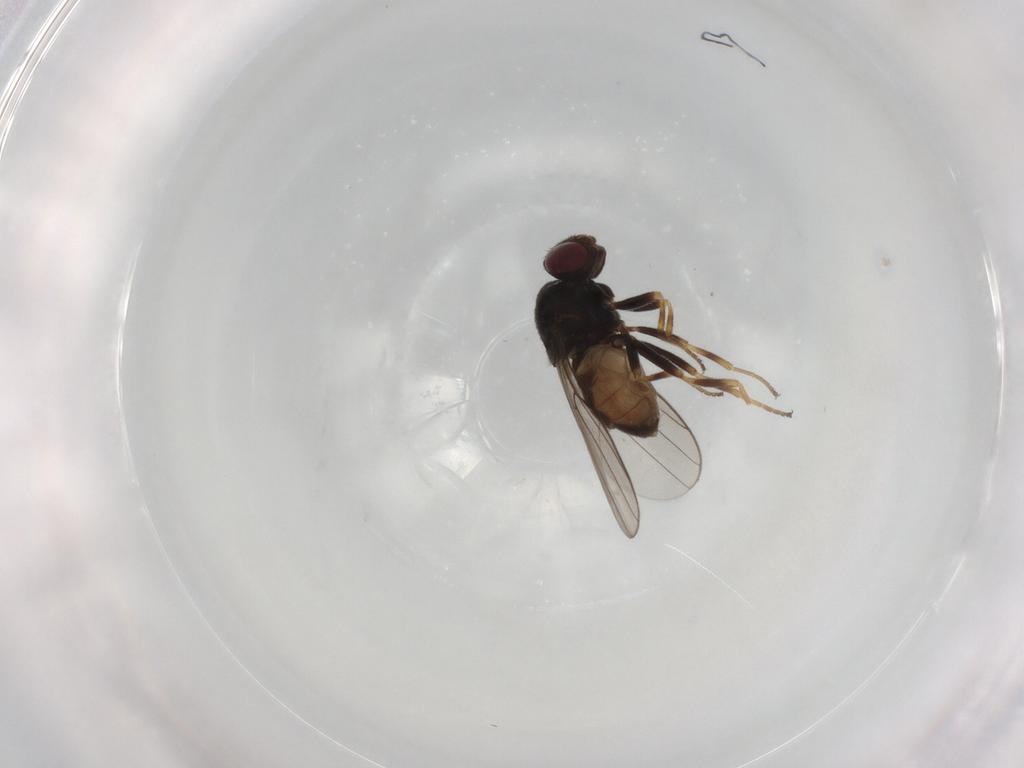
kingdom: Animalia
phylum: Arthropoda
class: Insecta
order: Diptera
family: Chloropidae
